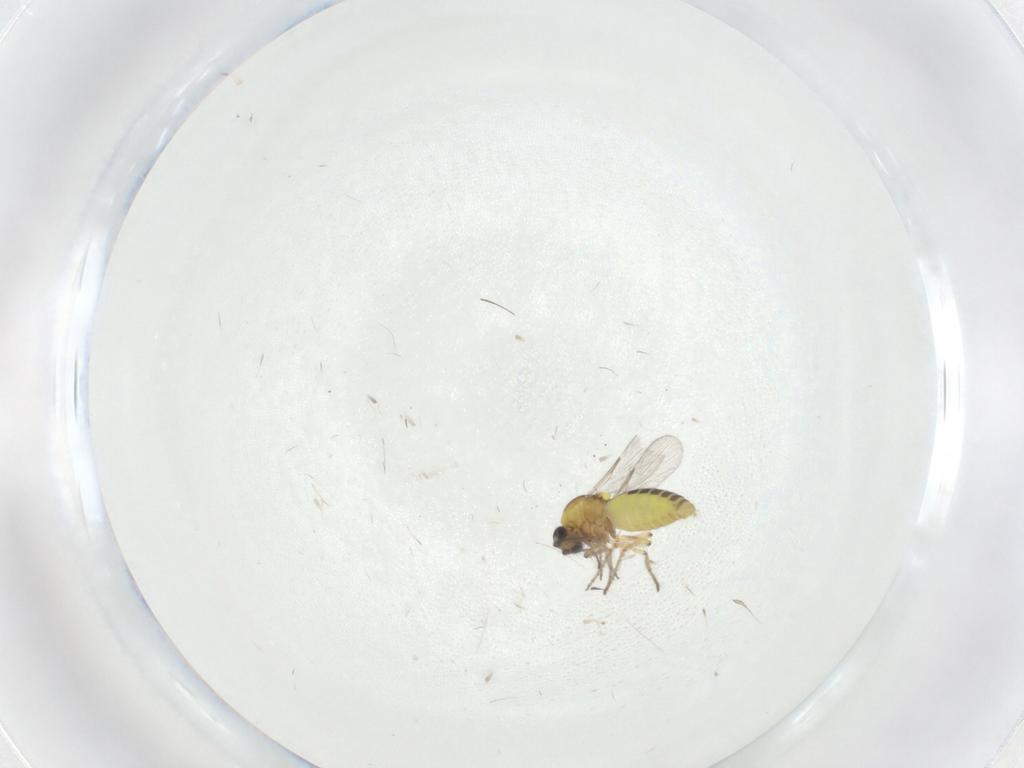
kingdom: Animalia
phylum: Arthropoda
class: Insecta
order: Diptera
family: Ceratopogonidae
